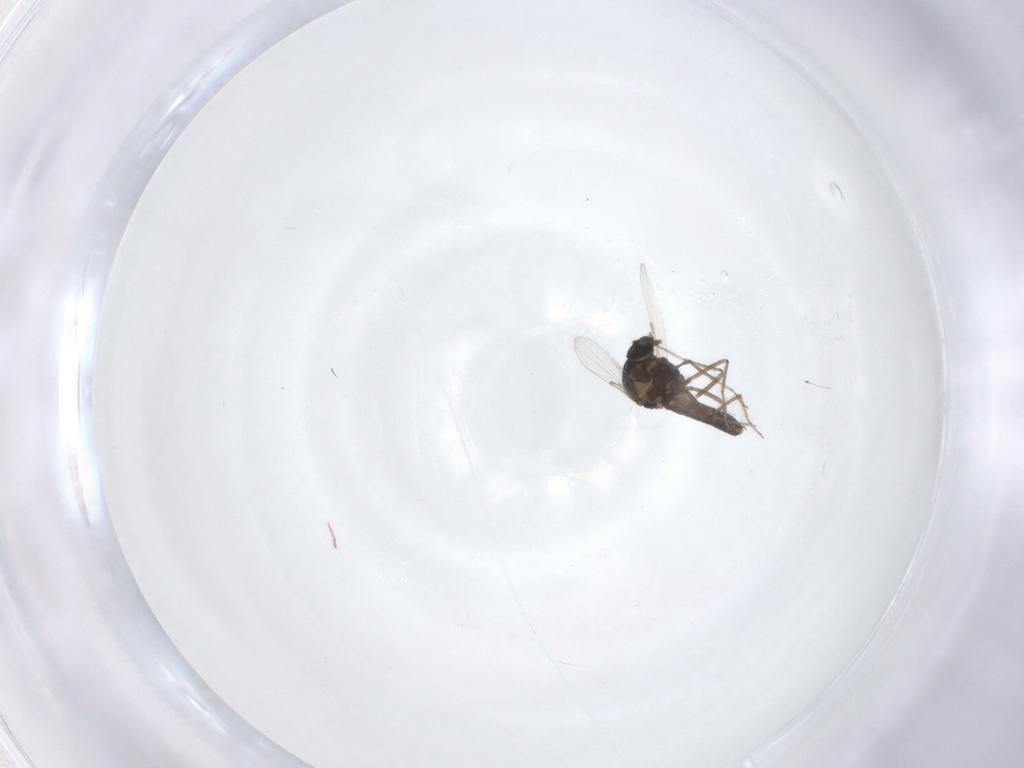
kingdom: Animalia
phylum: Arthropoda
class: Insecta
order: Diptera
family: Ceratopogonidae
